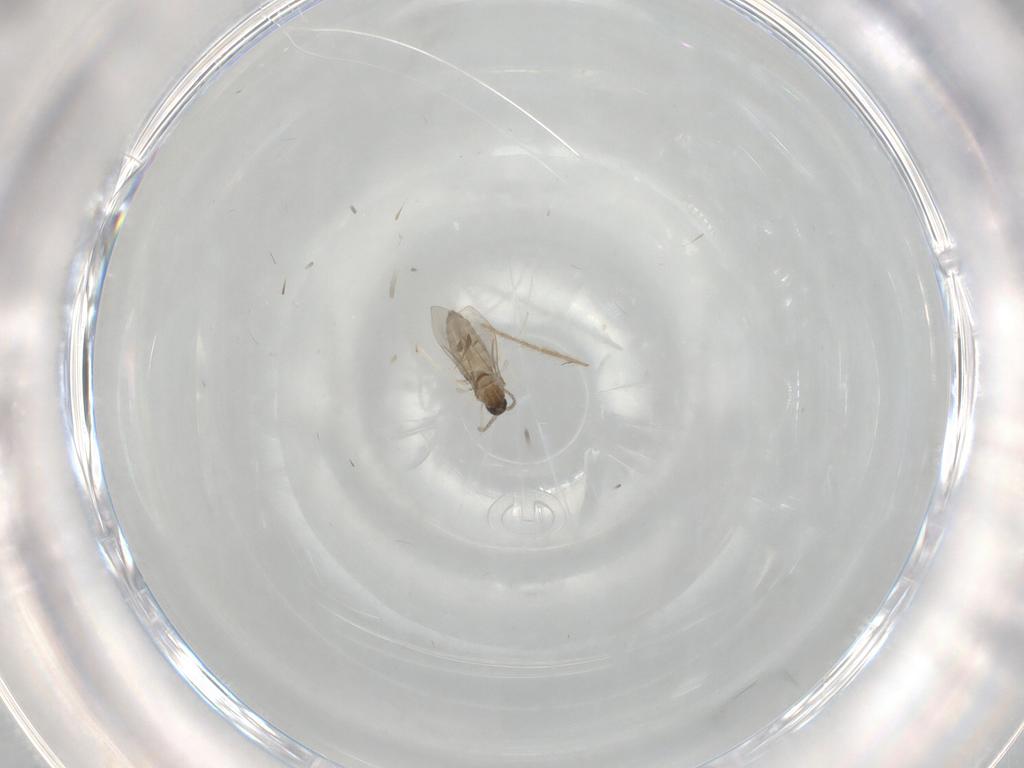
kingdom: Animalia
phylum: Arthropoda
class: Insecta
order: Diptera
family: Cecidomyiidae
